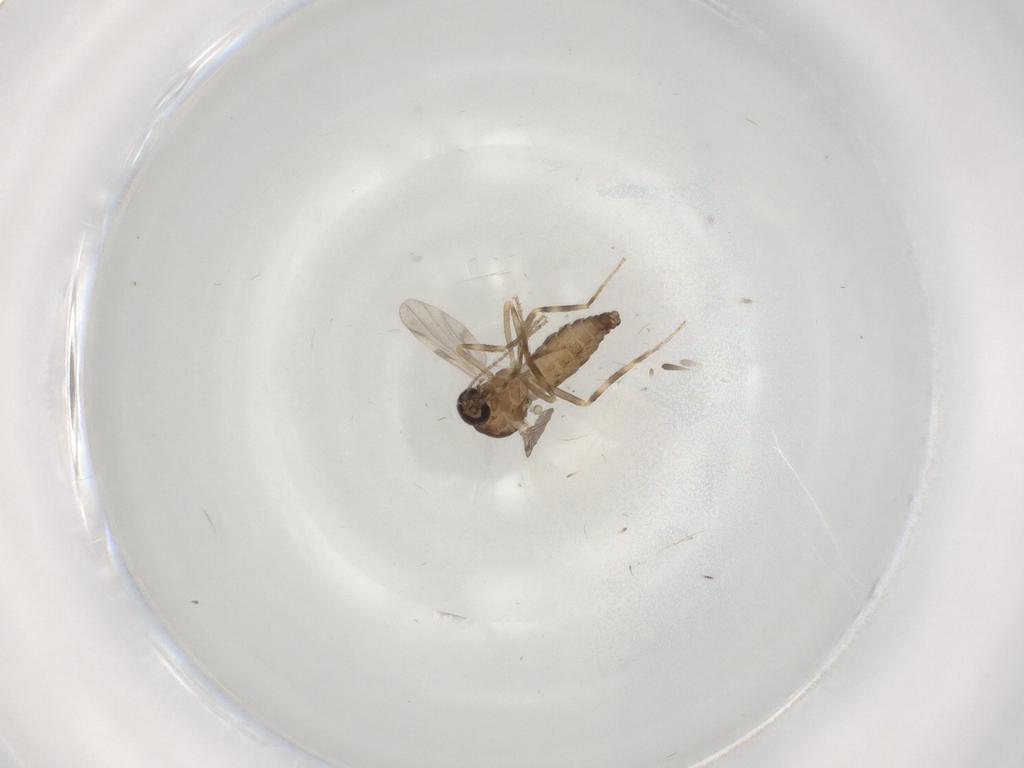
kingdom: Animalia
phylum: Arthropoda
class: Insecta
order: Diptera
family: Ceratopogonidae
